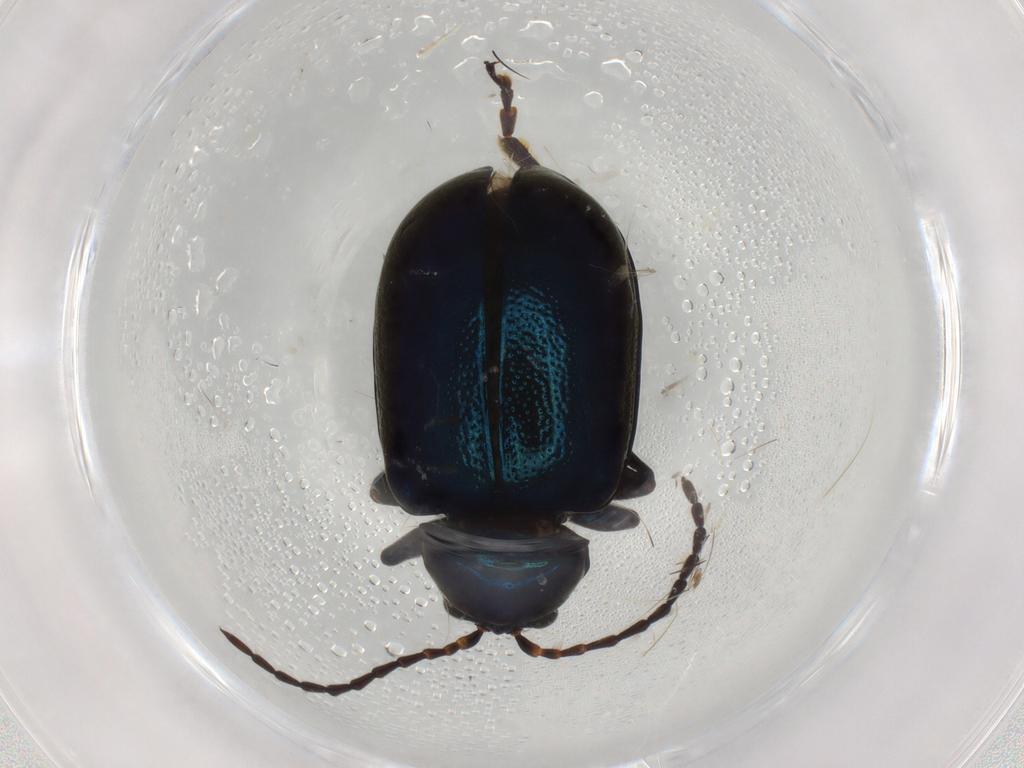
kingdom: Animalia
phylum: Arthropoda
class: Insecta
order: Coleoptera
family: Chrysomelidae
